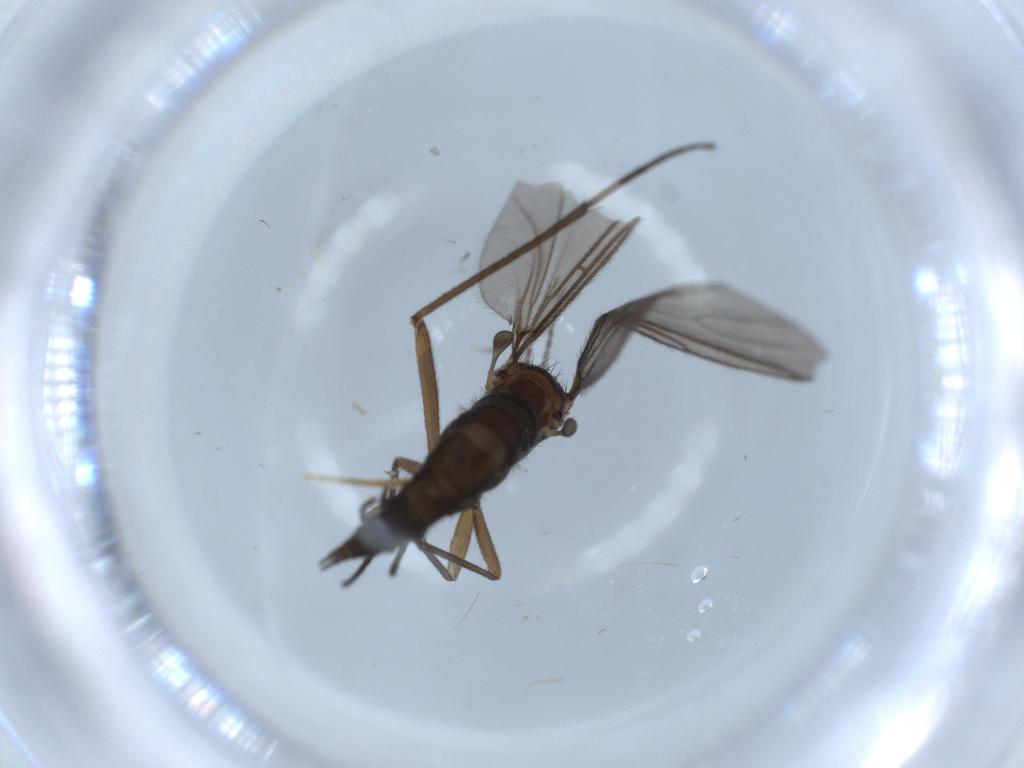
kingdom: Animalia
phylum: Arthropoda
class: Insecta
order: Diptera
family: Sciaridae
